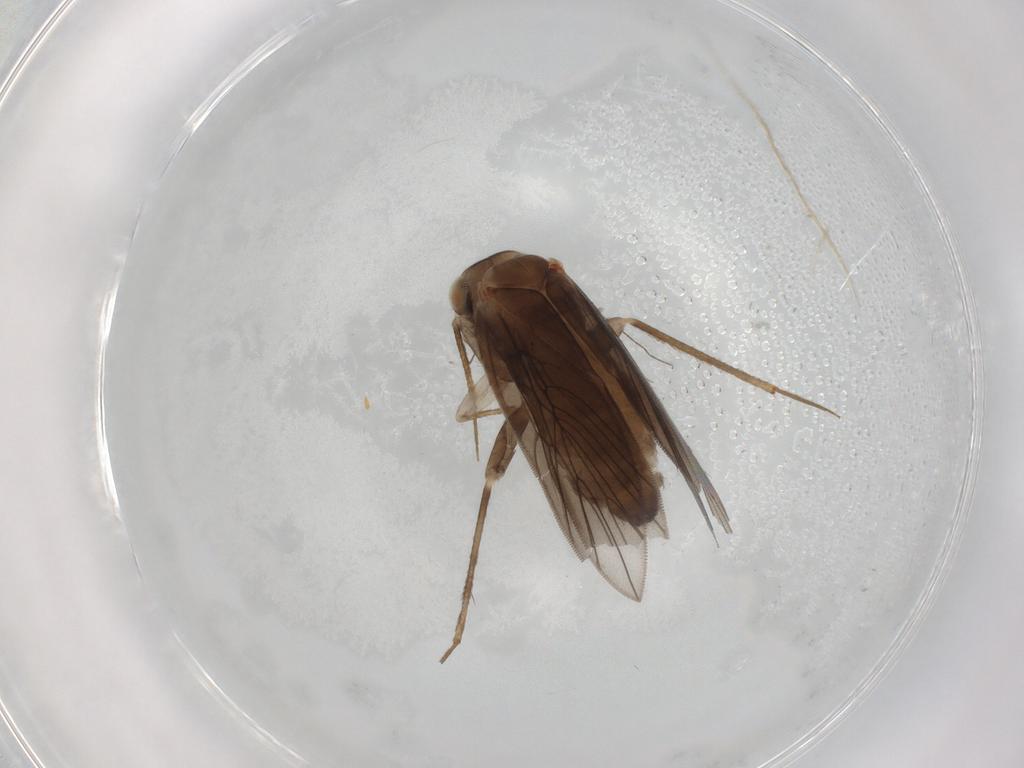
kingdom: Animalia
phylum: Arthropoda
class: Insecta
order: Psocodea
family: Lepidopsocidae
